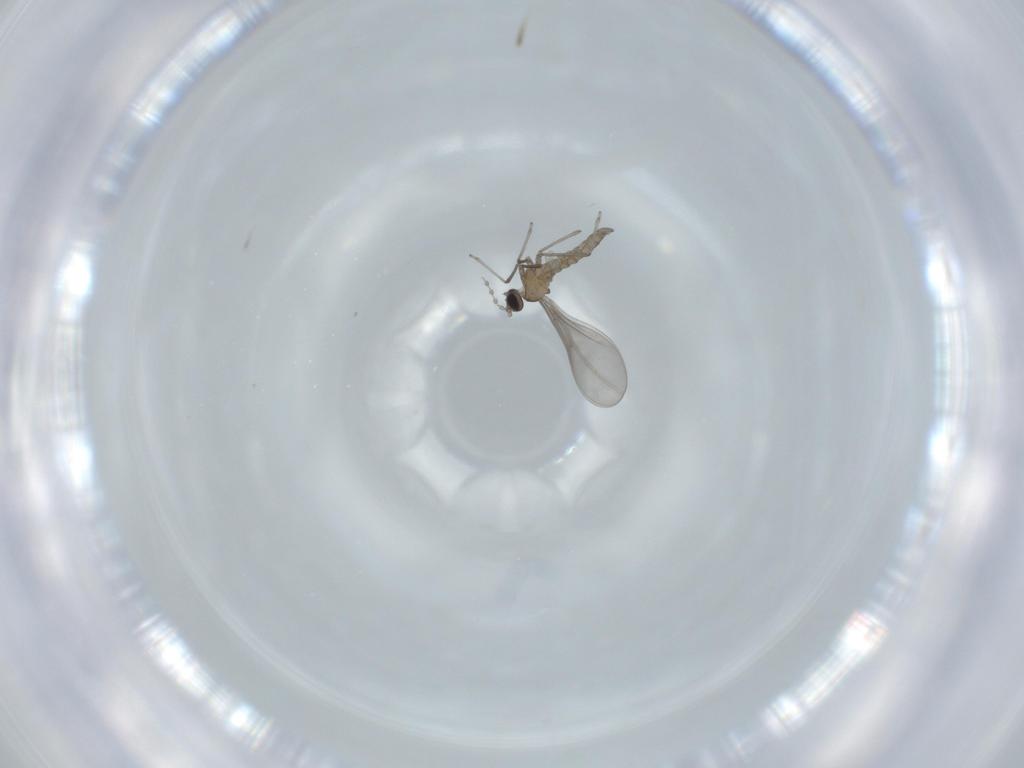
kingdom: Animalia
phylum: Arthropoda
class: Insecta
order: Diptera
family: Cecidomyiidae
